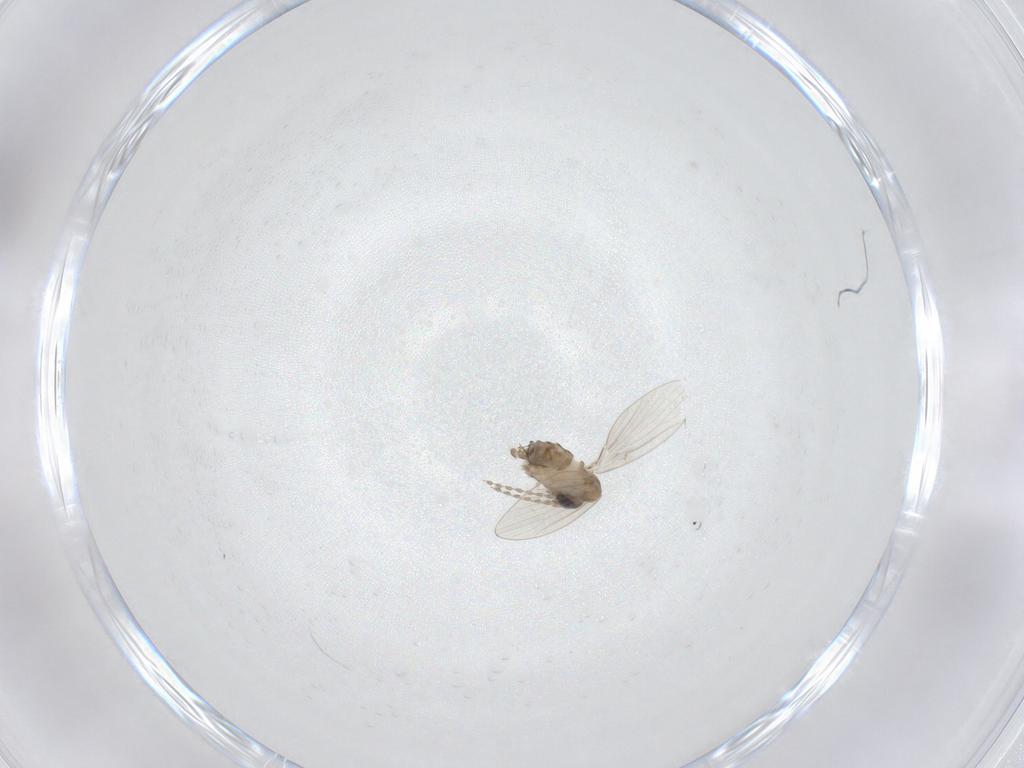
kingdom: Animalia
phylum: Arthropoda
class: Insecta
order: Diptera
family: Psychodidae
